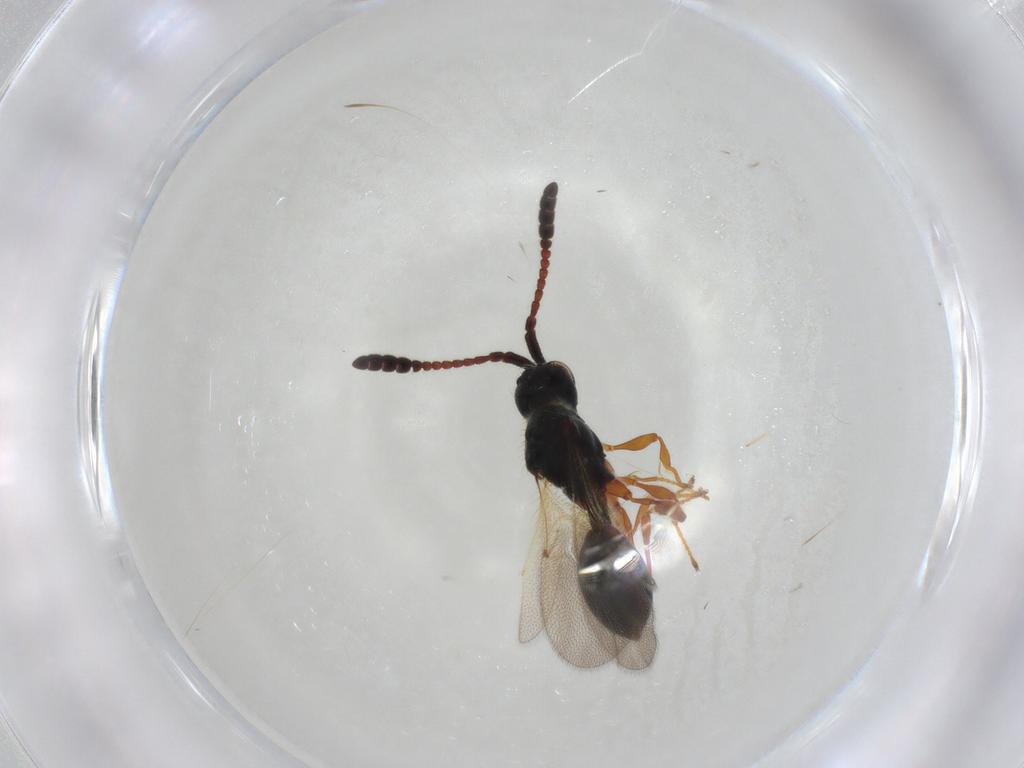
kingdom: Animalia
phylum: Arthropoda
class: Insecta
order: Hymenoptera
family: Diapriidae
